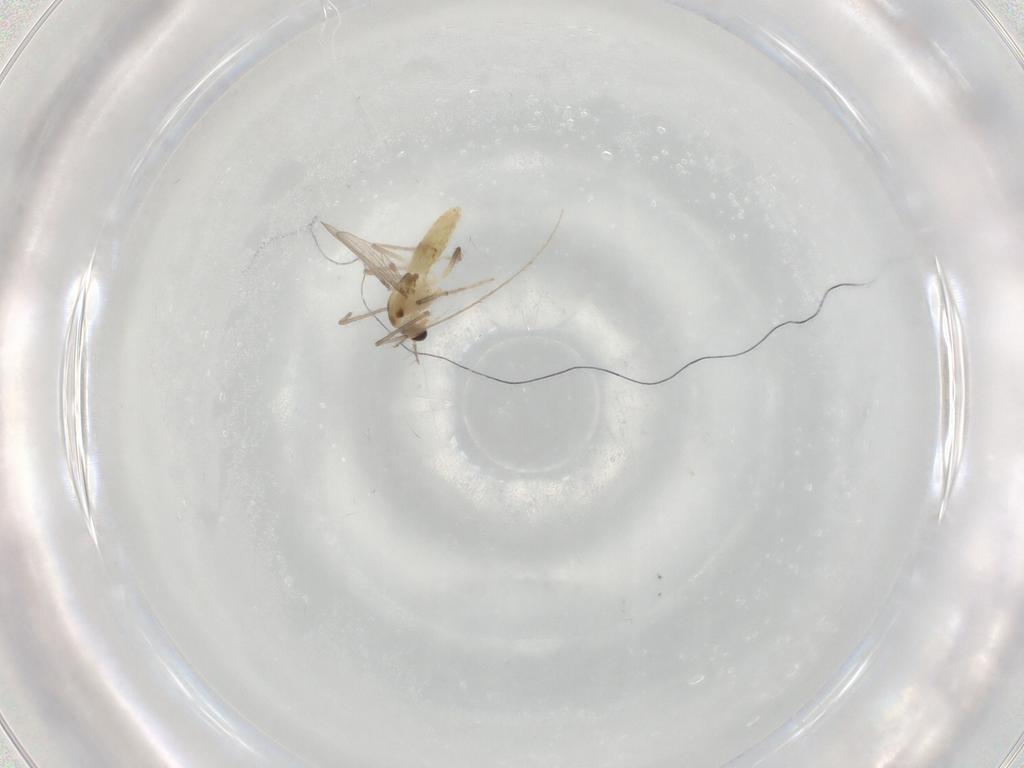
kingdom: Animalia
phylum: Arthropoda
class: Insecta
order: Diptera
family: Chironomidae
